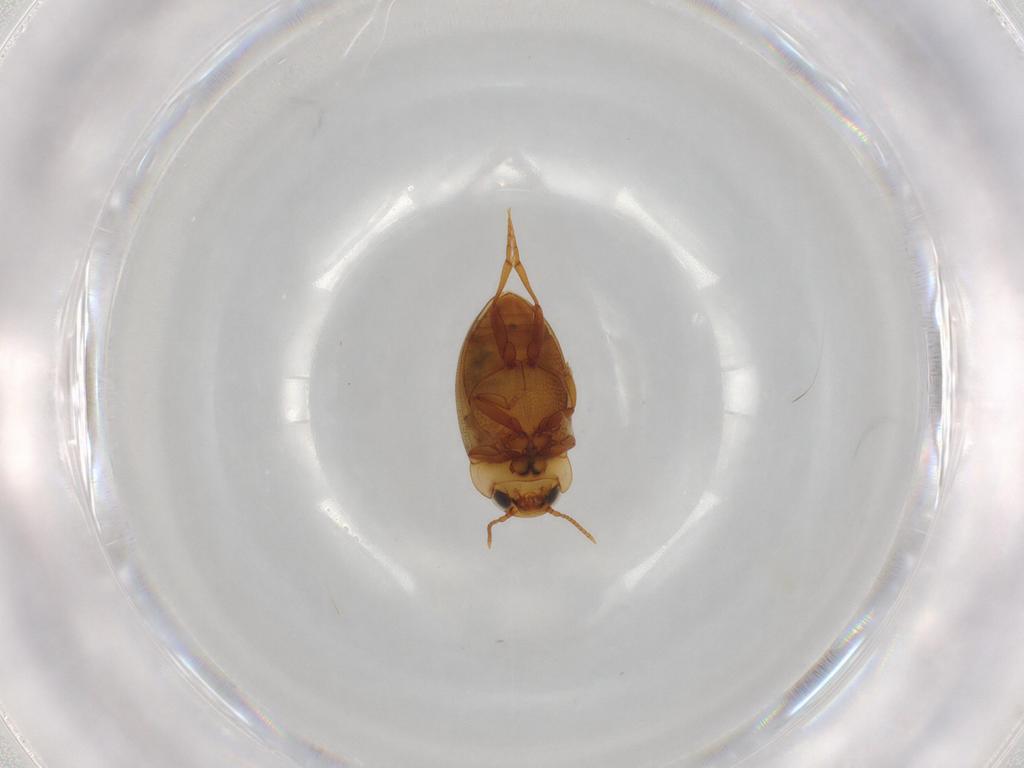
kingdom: Animalia
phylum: Arthropoda
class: Insecta
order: Coleoptera
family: Dytiscidae
